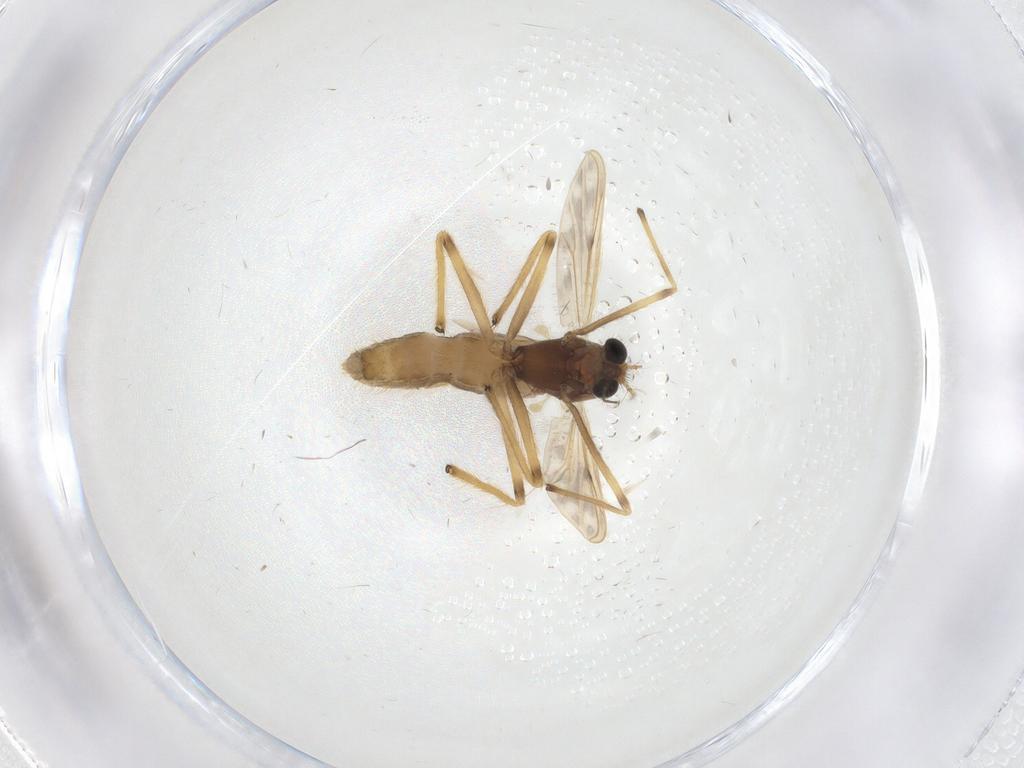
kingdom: Animalia
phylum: Arthropoda
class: Insecta
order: Diptera
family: Chironomidae
